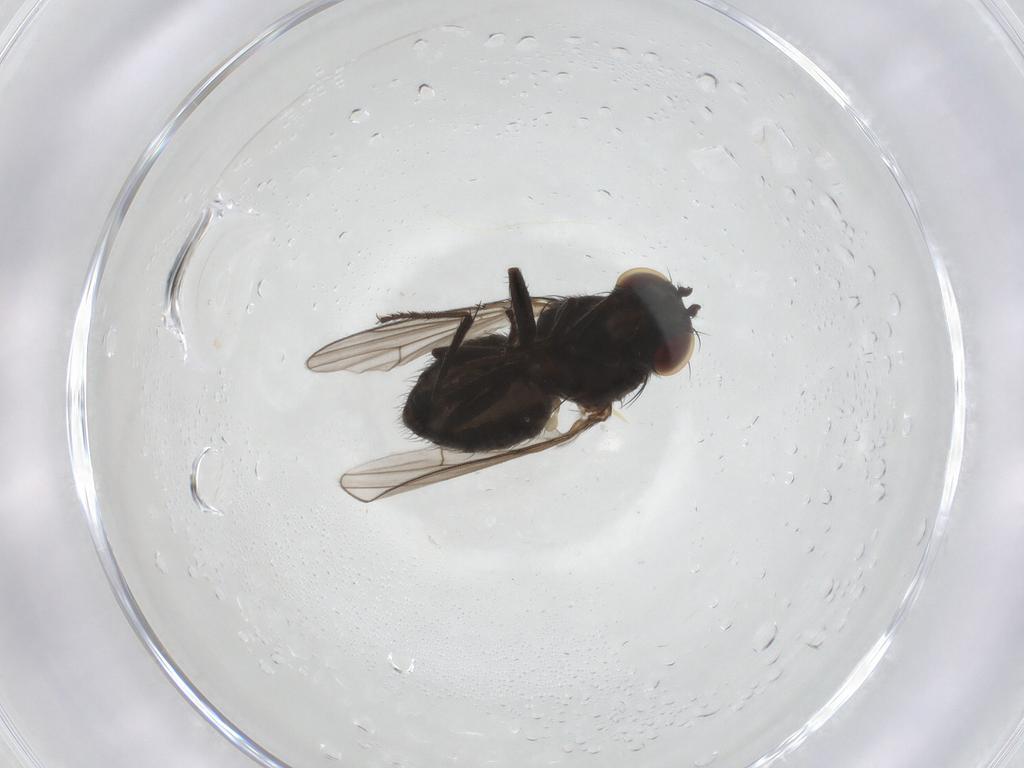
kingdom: Animalia
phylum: Arthropoda
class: Insecta
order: Diptera
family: Ephydridae
